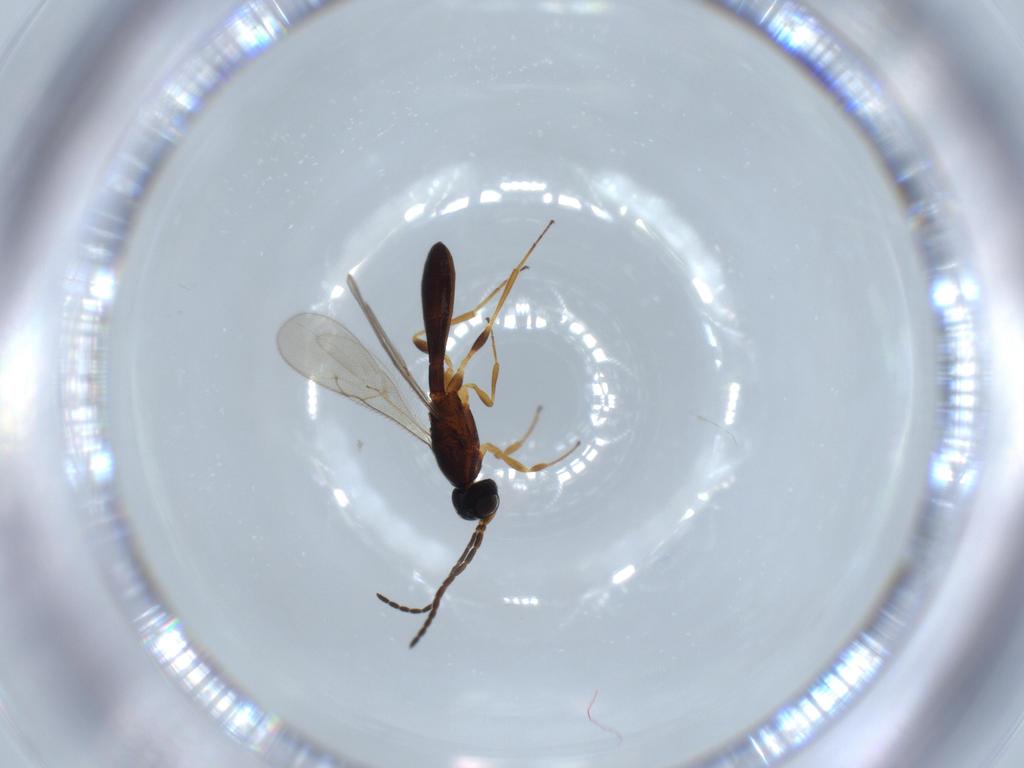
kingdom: Animalia
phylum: Arthropoda
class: Insecta
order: Hymenoptera
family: Scelionidae
